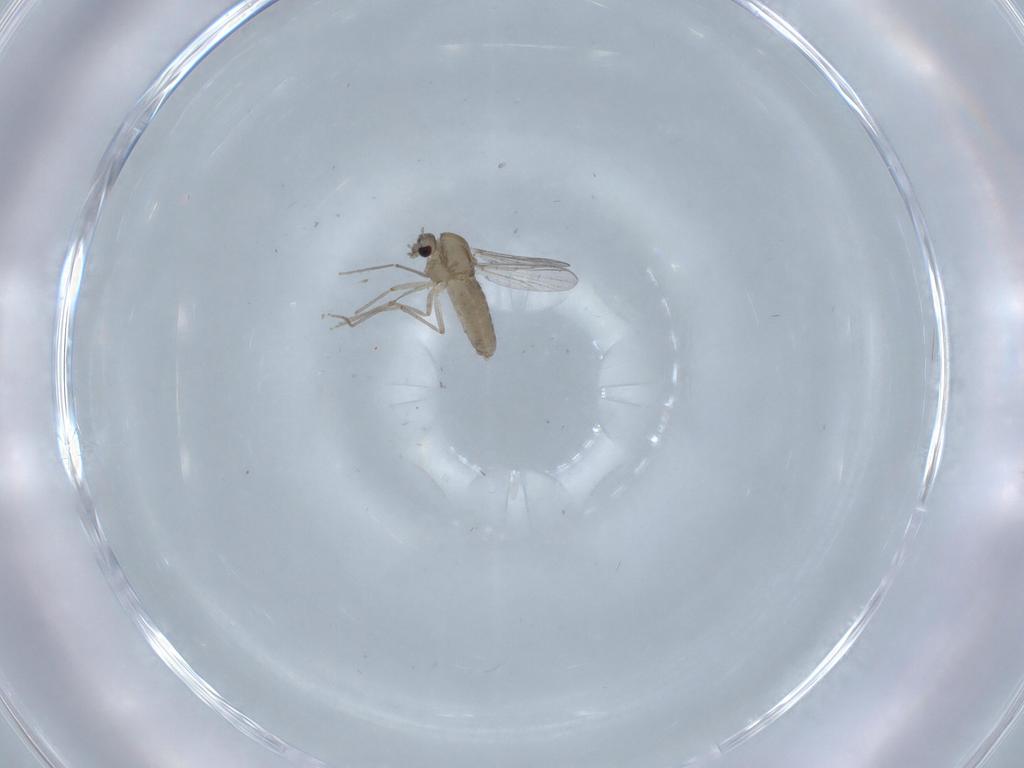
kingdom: Animalia
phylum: Arthropoda
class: Insecta
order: Diptera
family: Chironomidae
